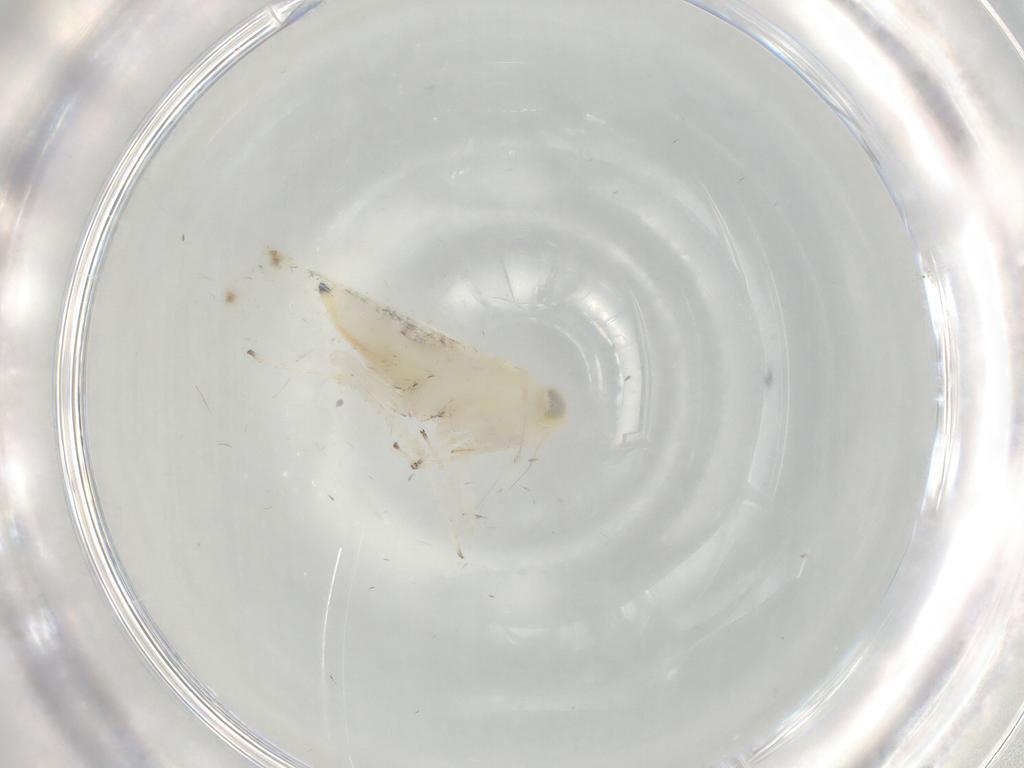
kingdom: Animalia
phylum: Arthropoda
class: Insecta
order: Hemiptera
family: Cicadellidae
